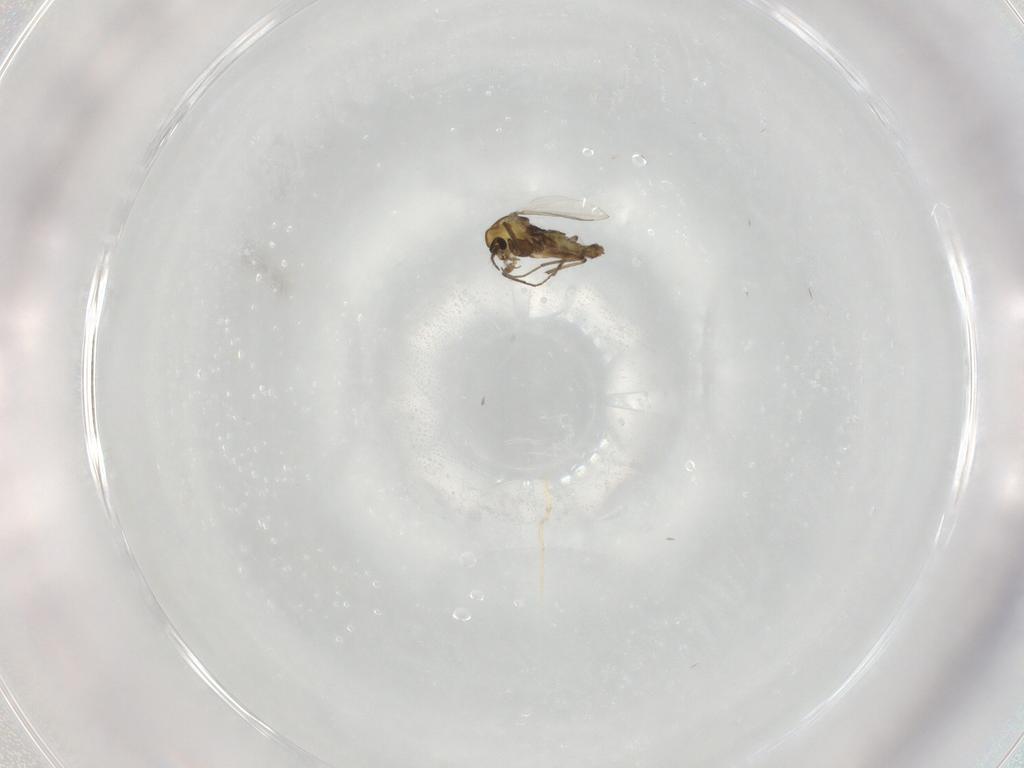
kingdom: Animalia
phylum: Arthropoda
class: Insecta
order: Diptera
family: Chironomidae
